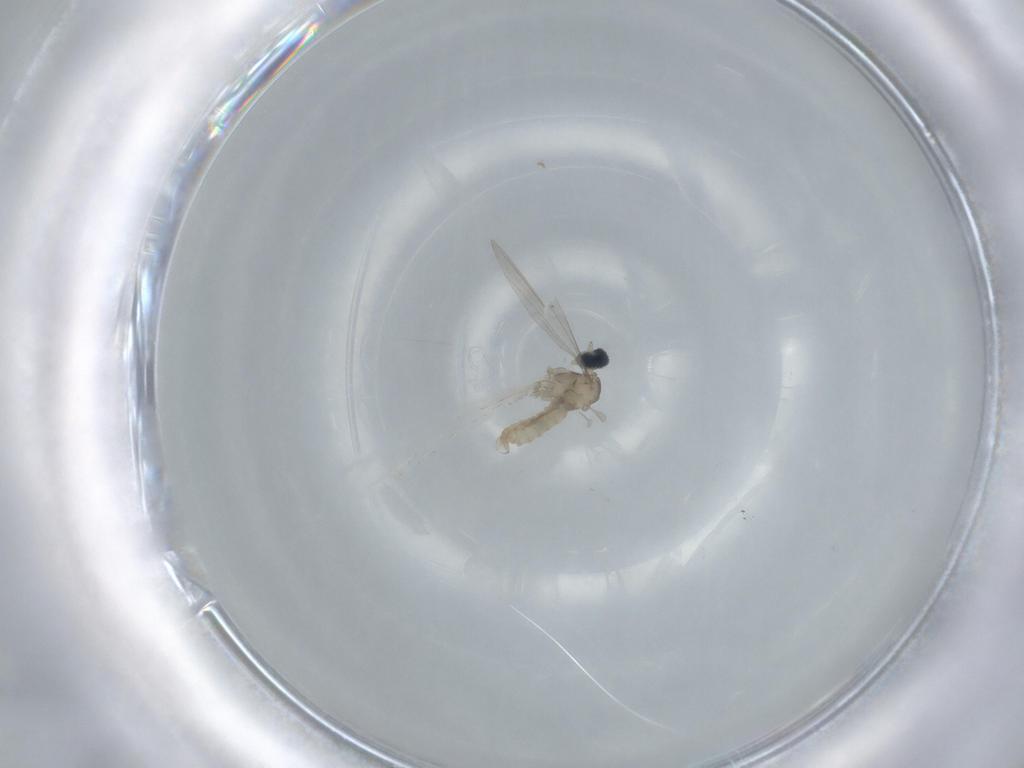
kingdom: Animalia
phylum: Arthropoda
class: Insecta
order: Diptera
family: Cecidomyiidae
